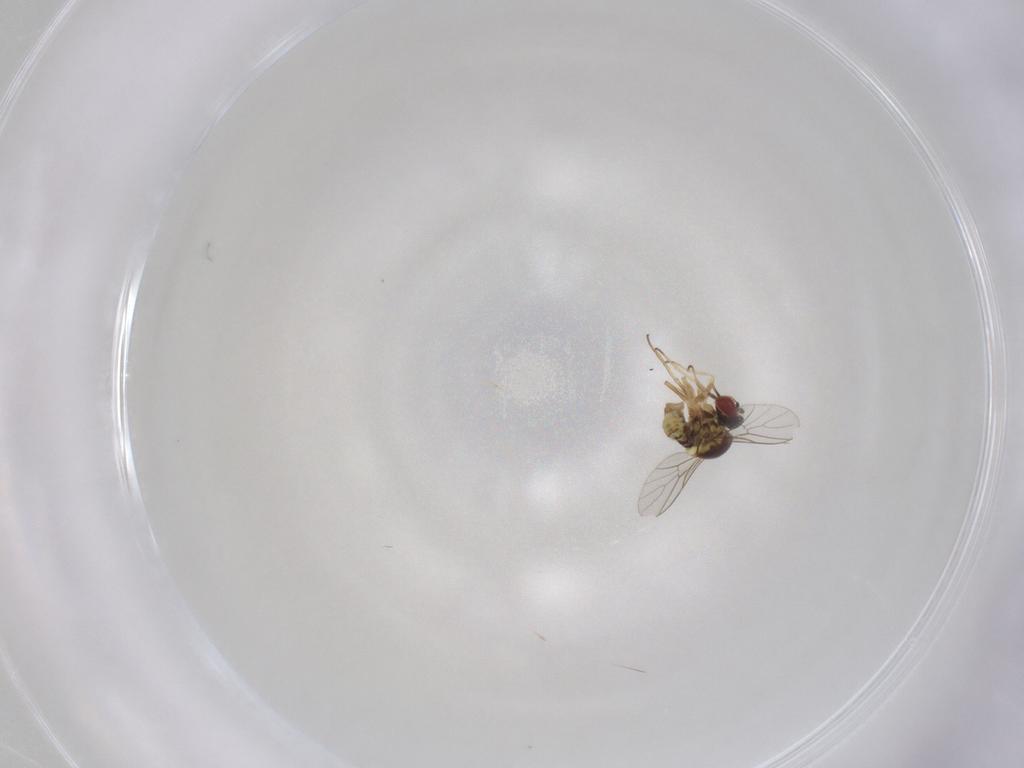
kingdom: Animalia
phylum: Arthropoda
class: Insecta
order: Diptera
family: Bombyliidae
